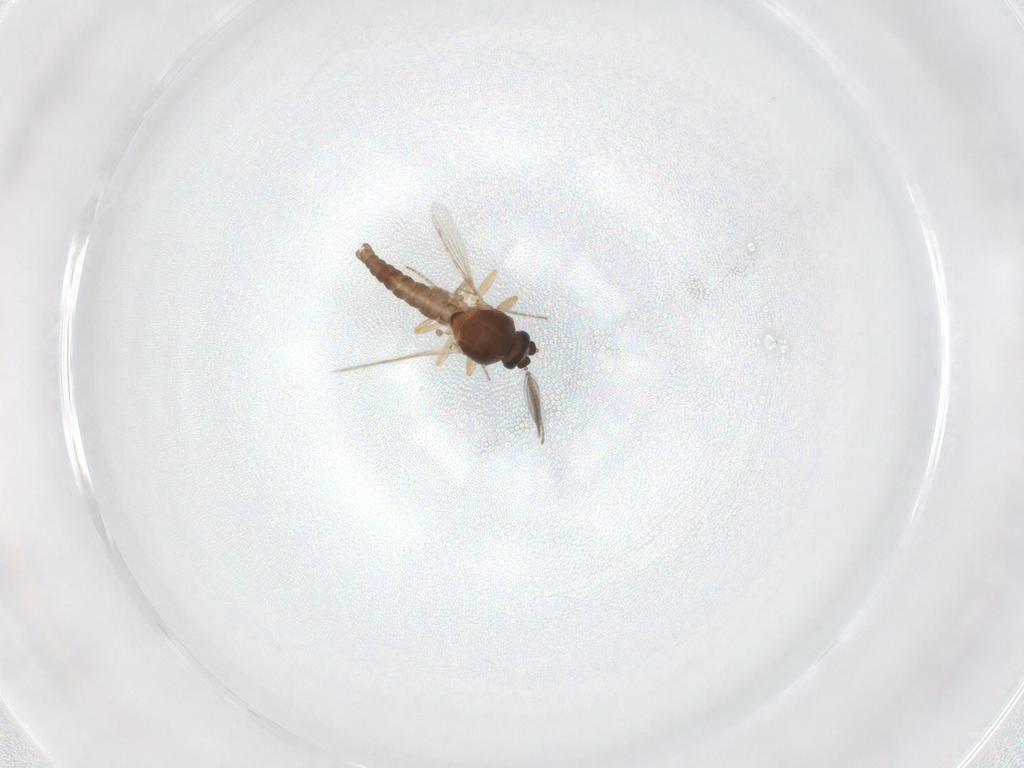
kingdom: Animalia
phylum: Arthropoda
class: Insecta
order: Diptera
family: Ceratopogonidae
